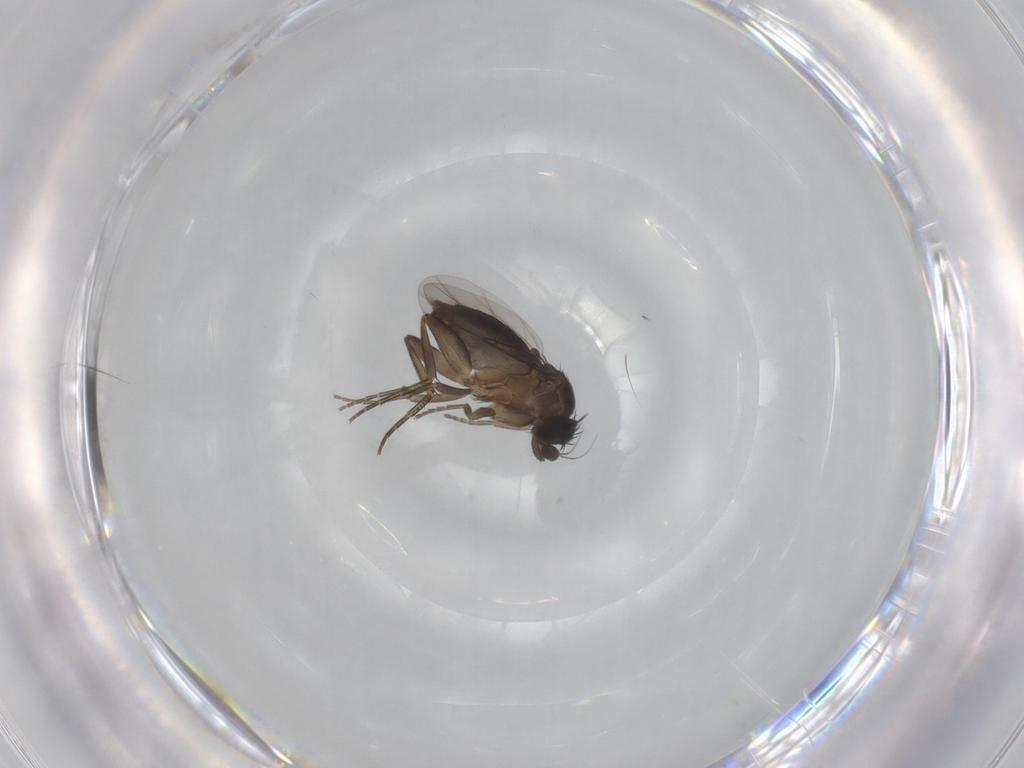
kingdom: Animalia
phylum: Arthropoda
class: Insecta
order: Diptera
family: Phoridae
